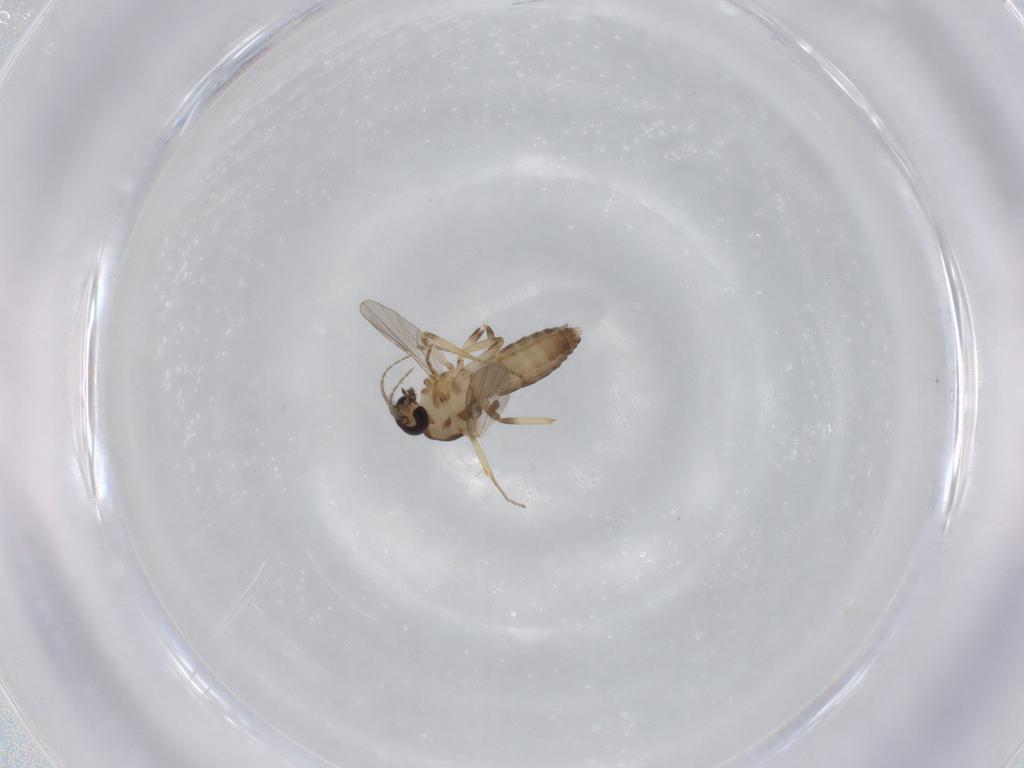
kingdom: Animalia
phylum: Arthropoda
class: Insecta
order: Diptera
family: Ceratopogonidae
